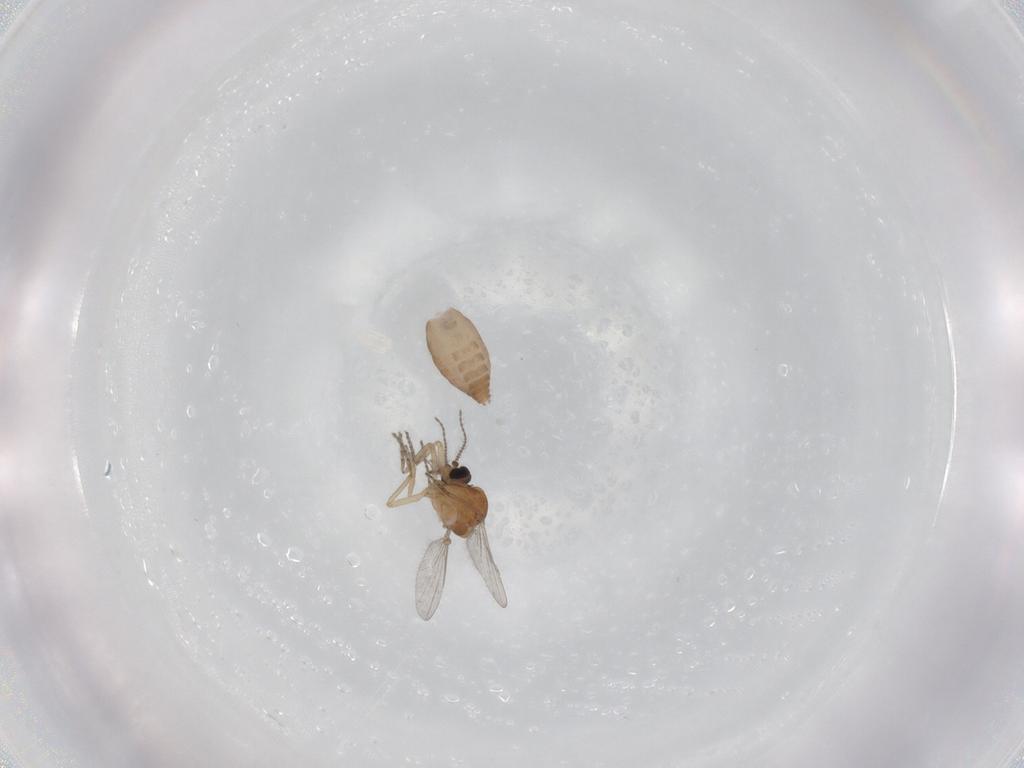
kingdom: Animalia
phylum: Arthropoda
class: Insecta
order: Diptera
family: Ceratopogonidae
